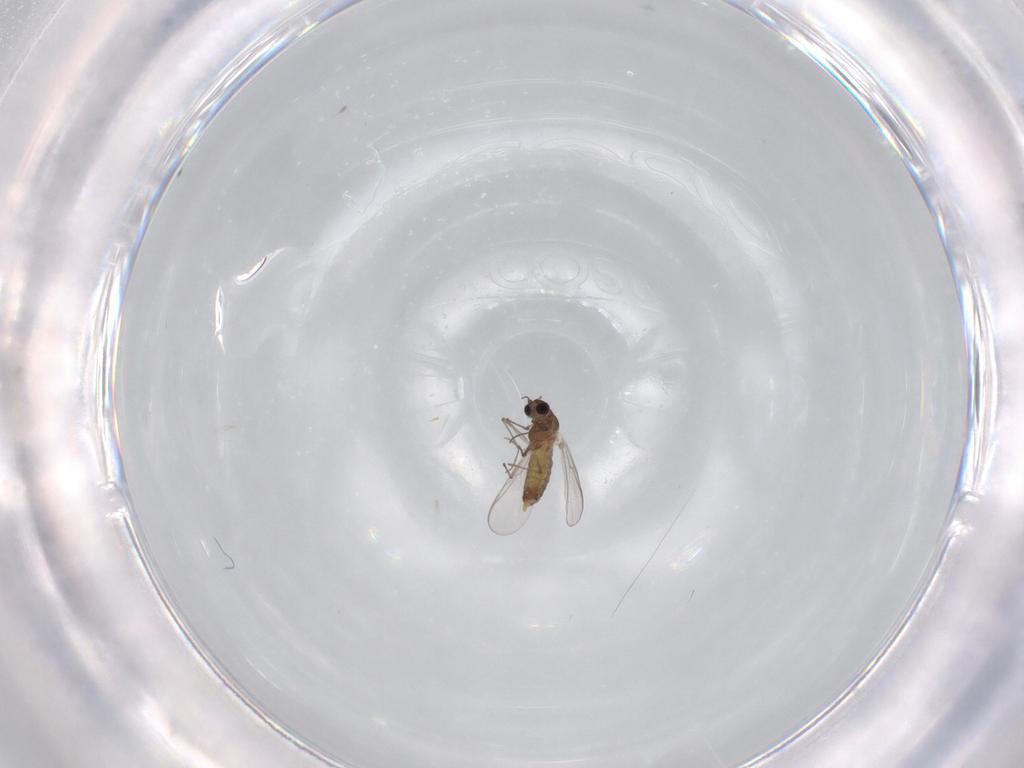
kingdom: Animalia
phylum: Arthropoda
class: Insecta
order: Diptera
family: Chironomidae
